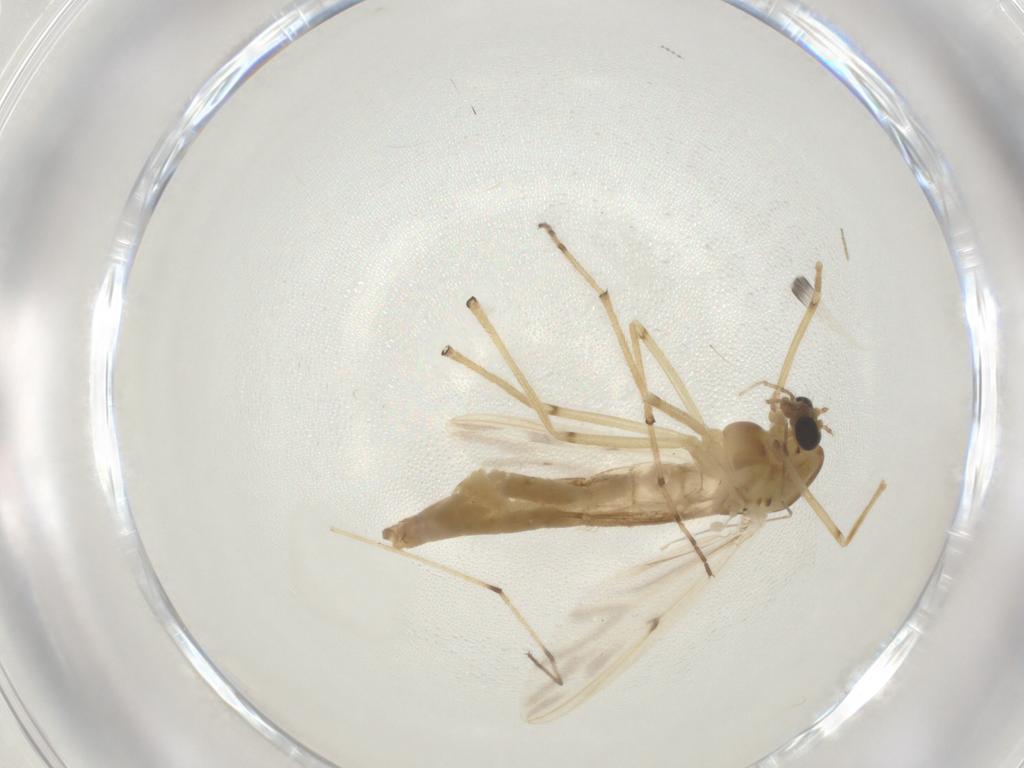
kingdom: Animalia
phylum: Arthropoda
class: Insecta
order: Diptera
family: Chironomidae
